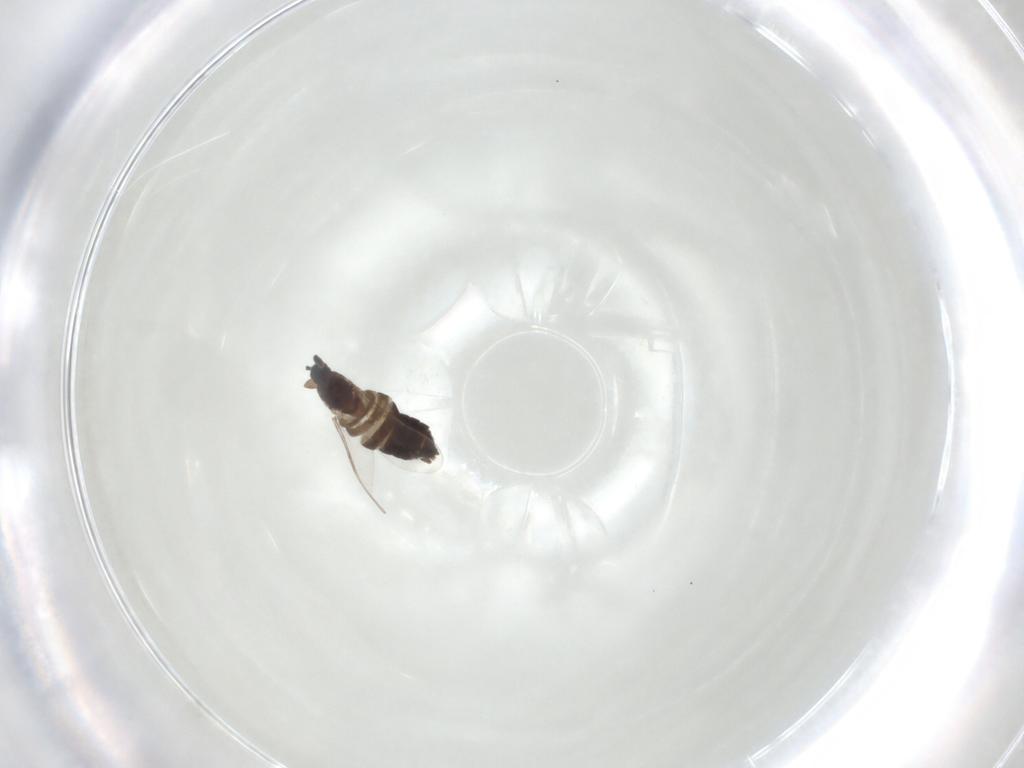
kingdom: Animalia
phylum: Arthropoda
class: Insecta
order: Diptera
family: Scatopsidae
